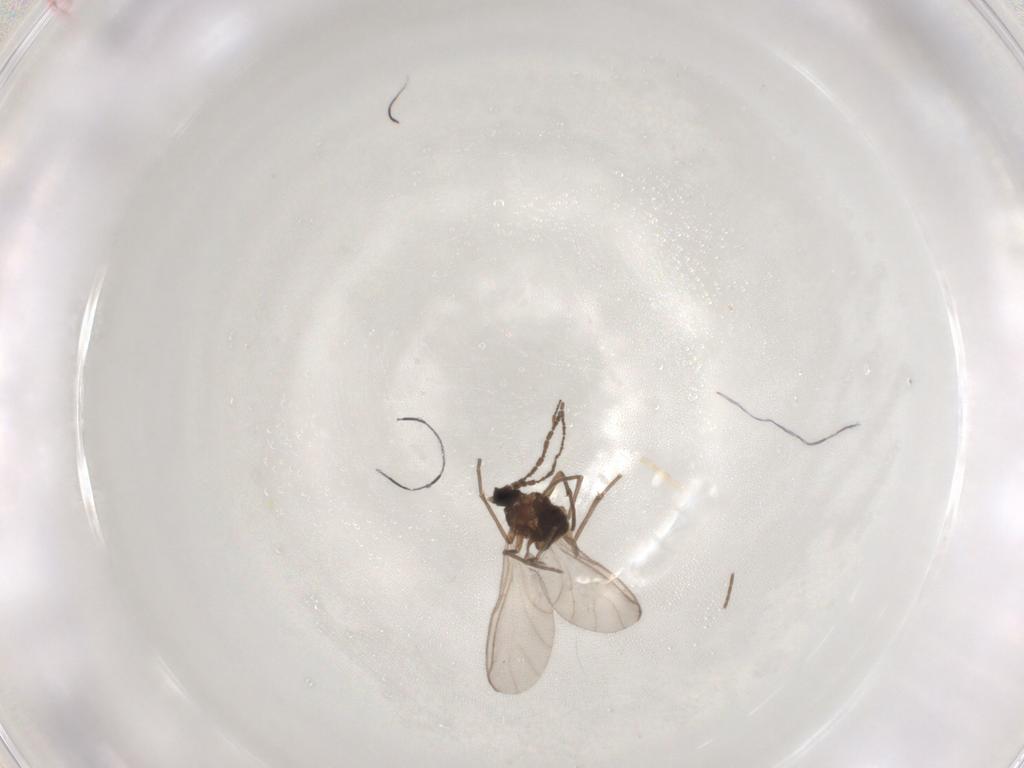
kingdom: Animalia
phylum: Arthropoda
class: Insecta
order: Diptera
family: Sciaridae
